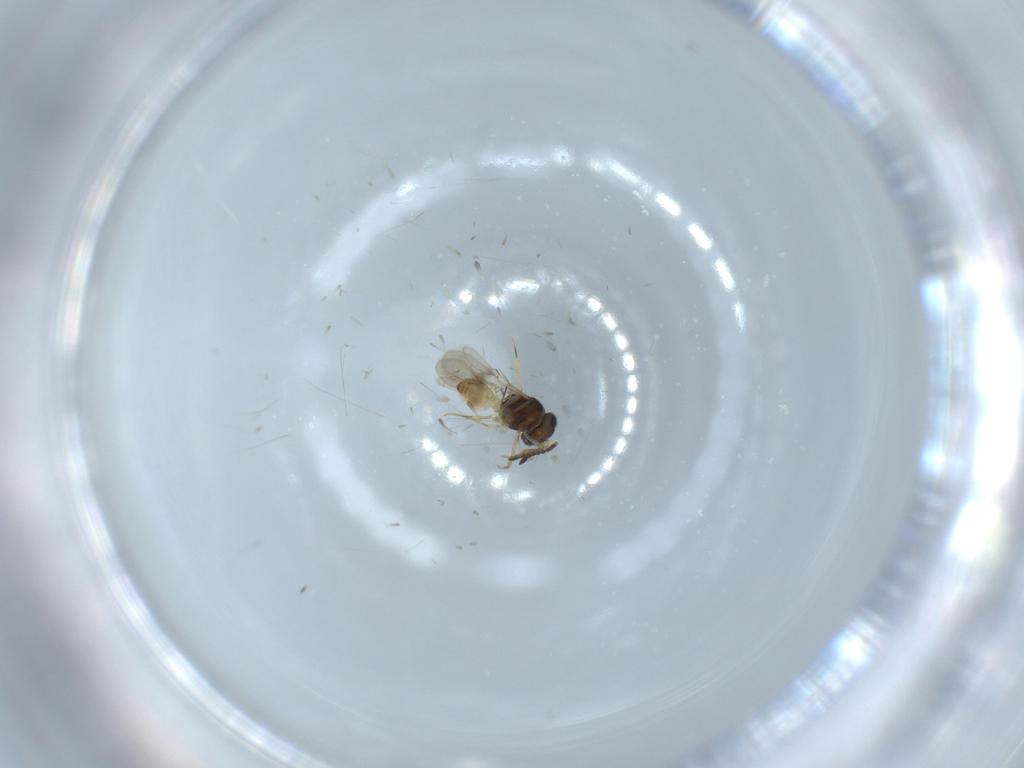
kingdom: Animalia
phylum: Arthropoda
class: Insecta
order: Hymenoptera
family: Scelionidae
